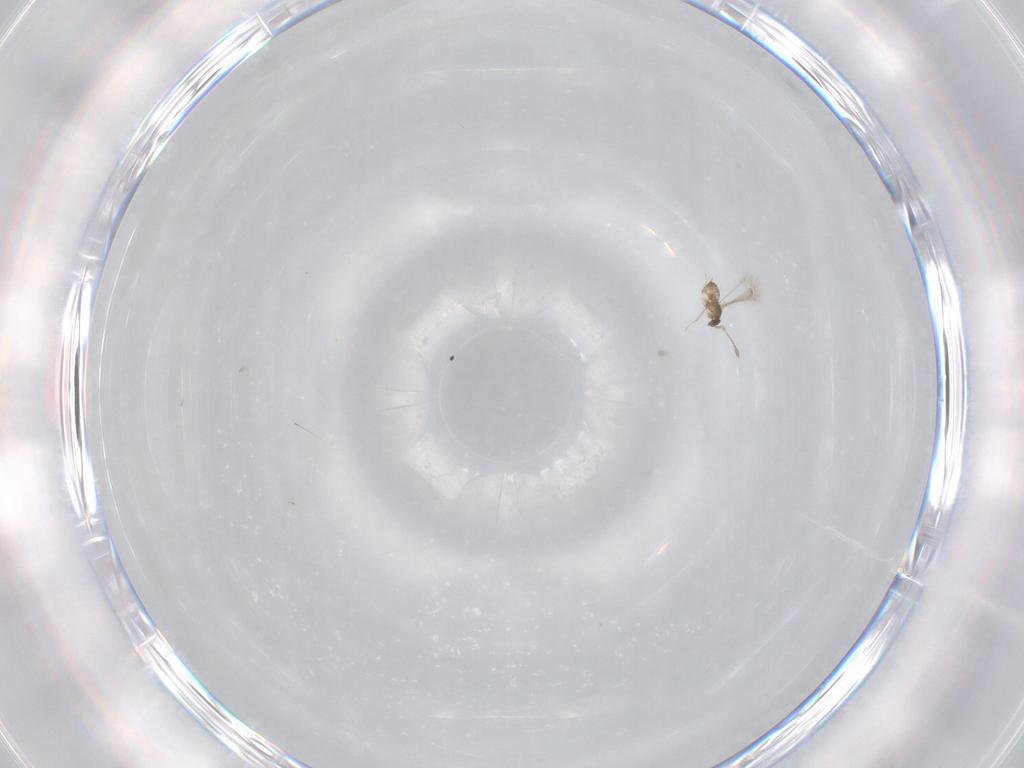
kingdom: Animalia
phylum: Arthropoda
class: Insecta
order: Hymenoptera
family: Mymaridae
